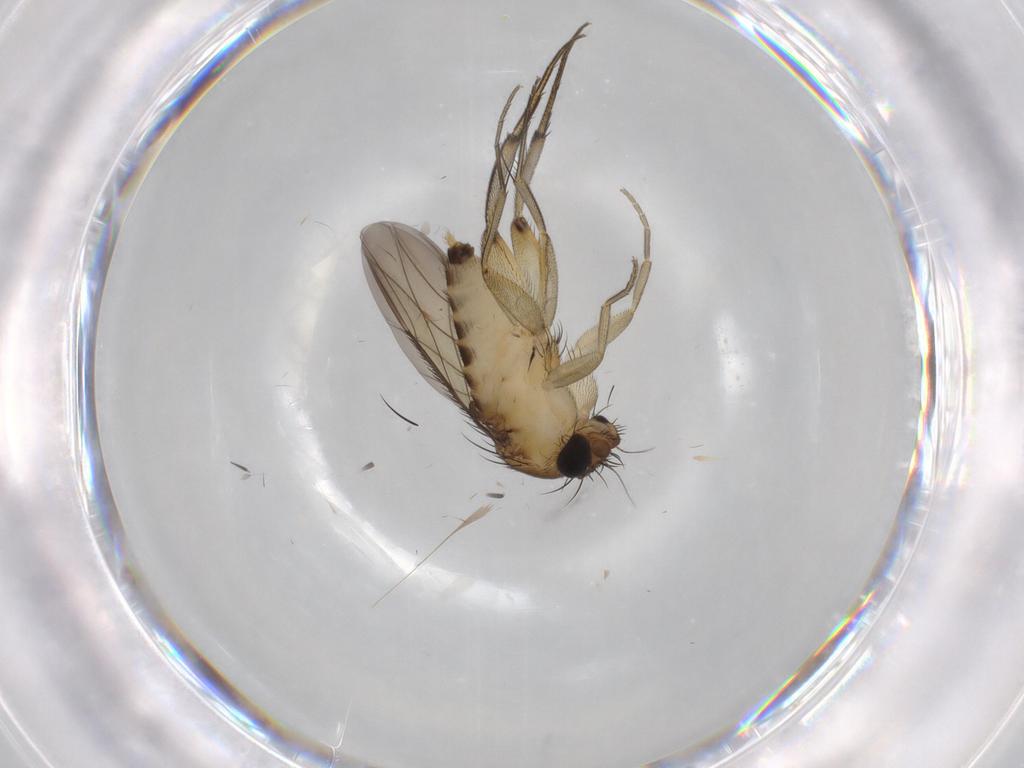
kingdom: Animalia
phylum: Arthropoda
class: Insecta
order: Diptera
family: Phoridae
